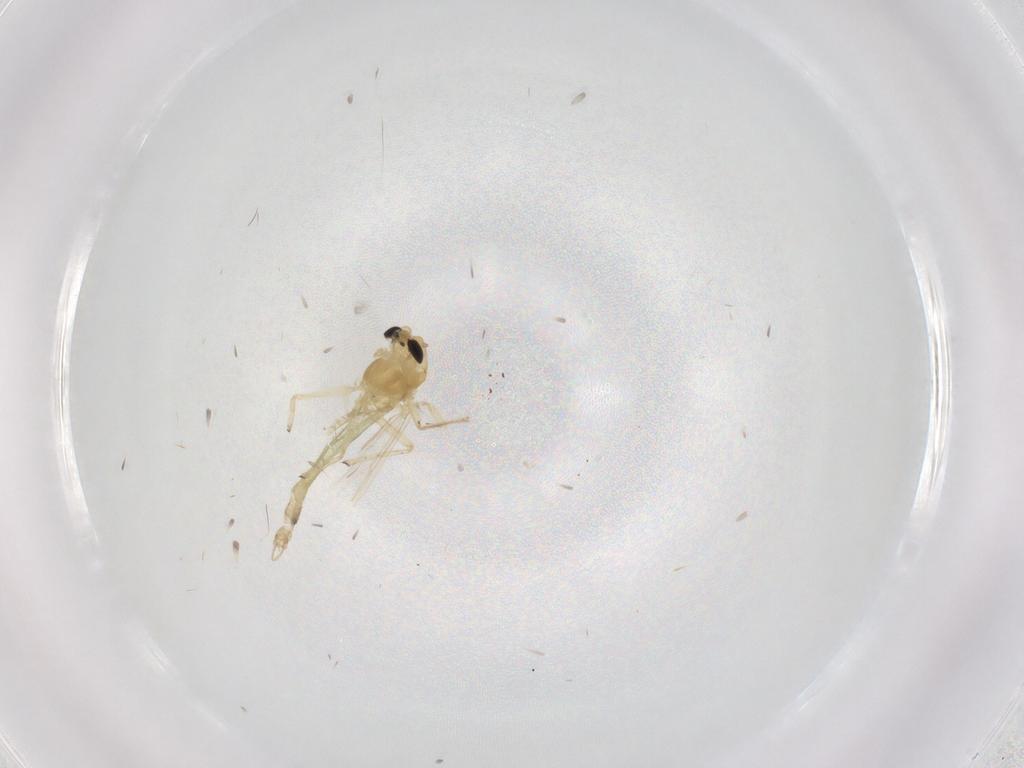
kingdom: Animalia
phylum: Arthropoda
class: Insecta
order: Diptera
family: Chironomidae
